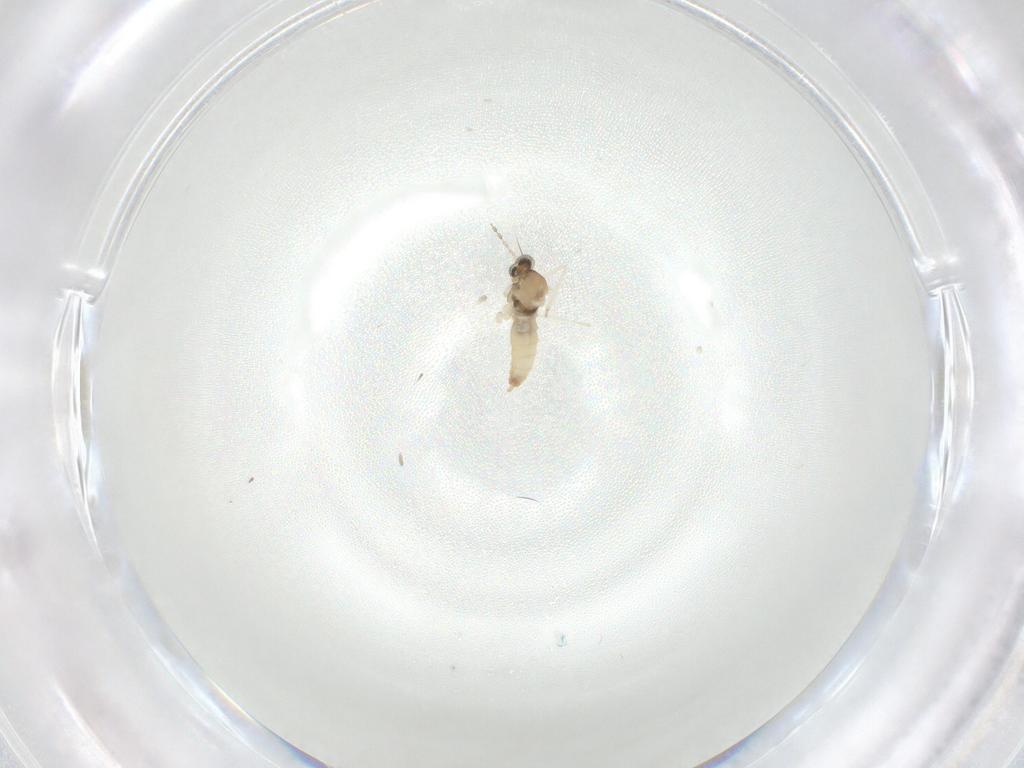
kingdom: Animalia
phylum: Arthropoda
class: Insecta
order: Diptera
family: Cecidomyiidae
